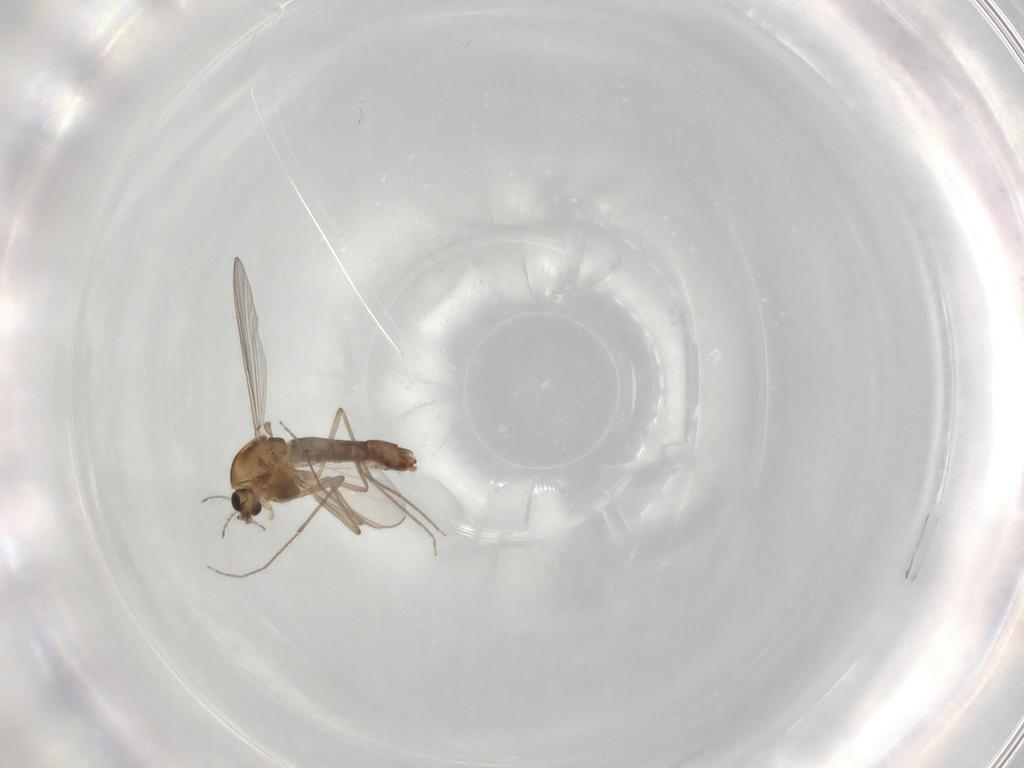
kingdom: Animalia
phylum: Arthropoda
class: Insecta
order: Diptera
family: Chironomidae
